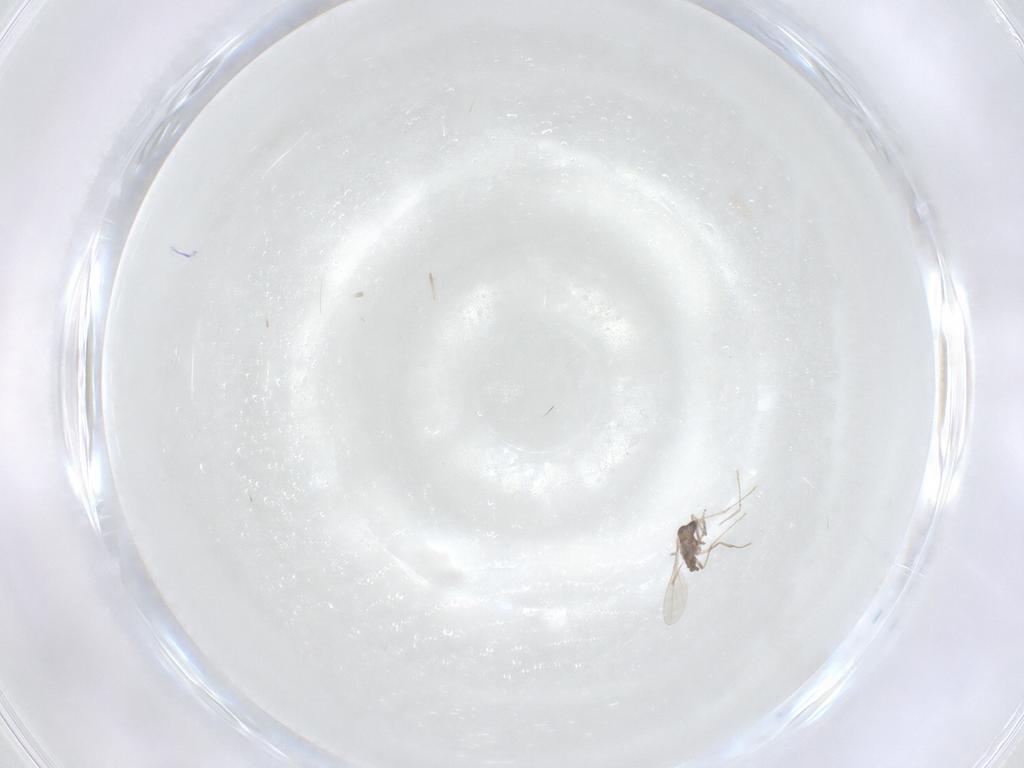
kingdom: Animalia
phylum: Arthropoda
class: Insecta
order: Diptera
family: Cecidomyiidae
